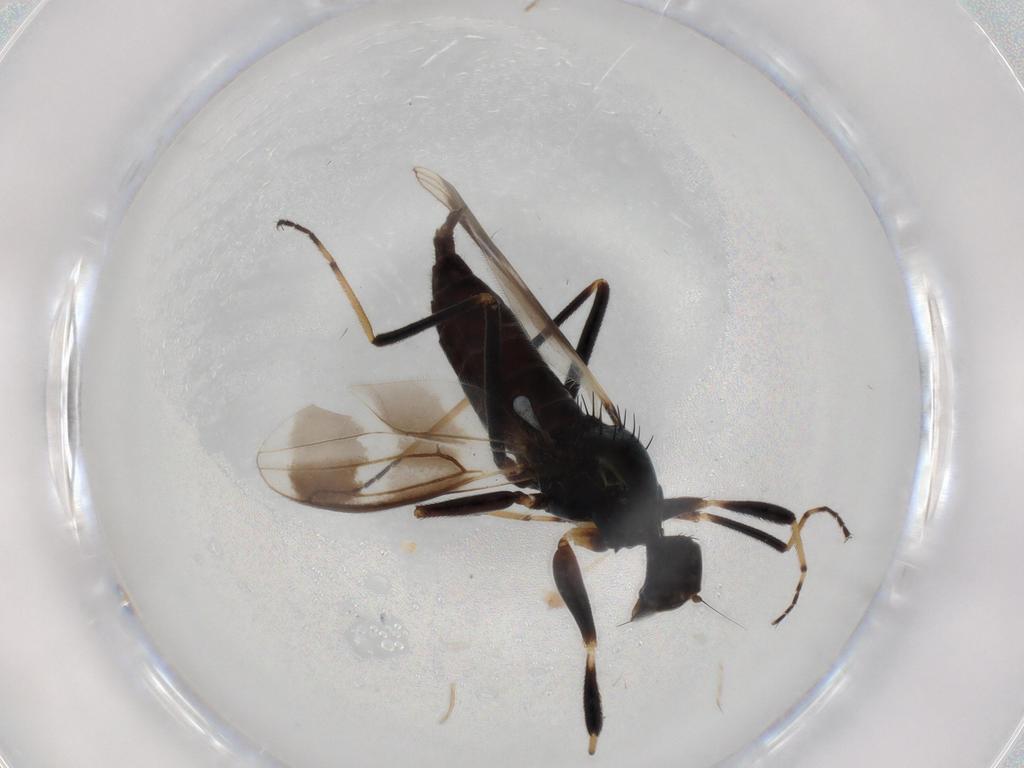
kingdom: Animalia
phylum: Arthropoda
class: Insecta
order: Diptera
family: Hybotidae
